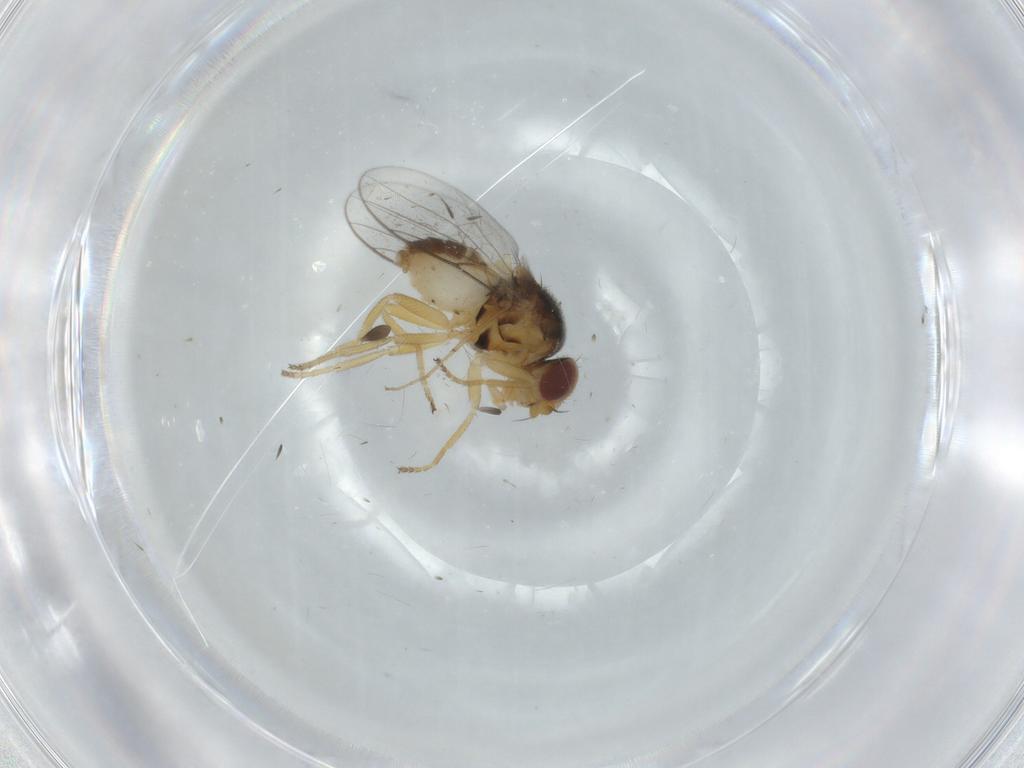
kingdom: Animalia
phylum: Arthropoda
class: Insecta
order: Diptera
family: Chloropidae
